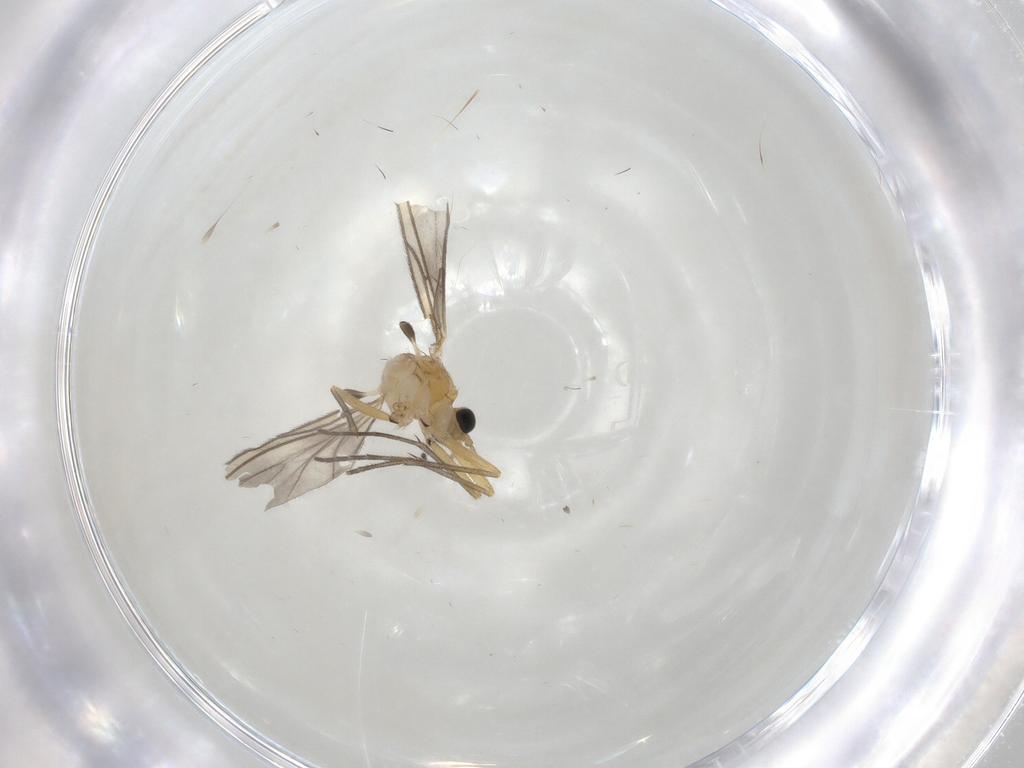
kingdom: Animalia
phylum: Arthropoda
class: Insecta
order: Diptera
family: Sciaridae
